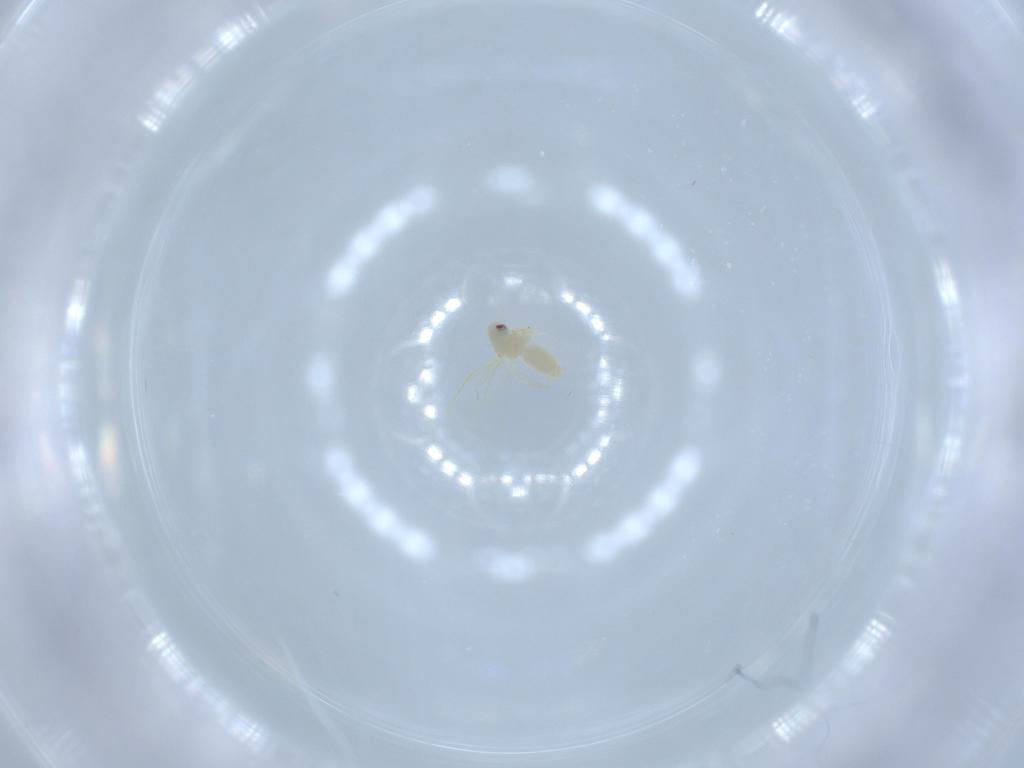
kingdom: Animalia
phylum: Arthropoda
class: Insecta
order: Hemiptera
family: Aleyrodidae
